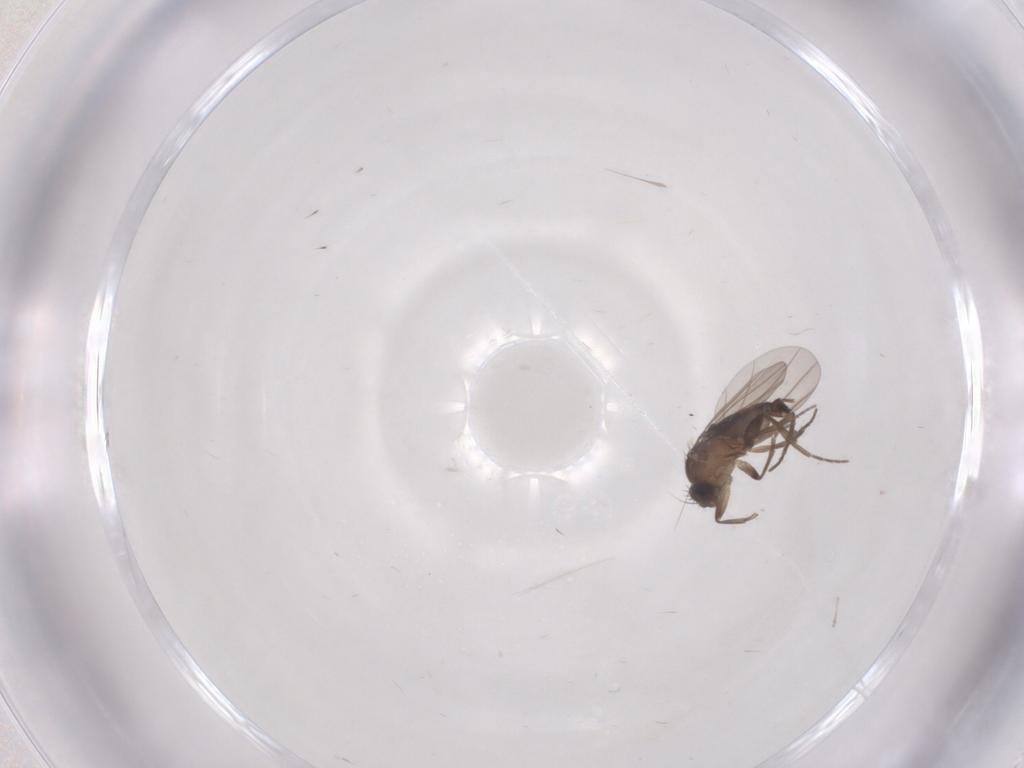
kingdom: Animalia
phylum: Arthropoda
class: Insecta
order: Diptera
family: Phoridae
